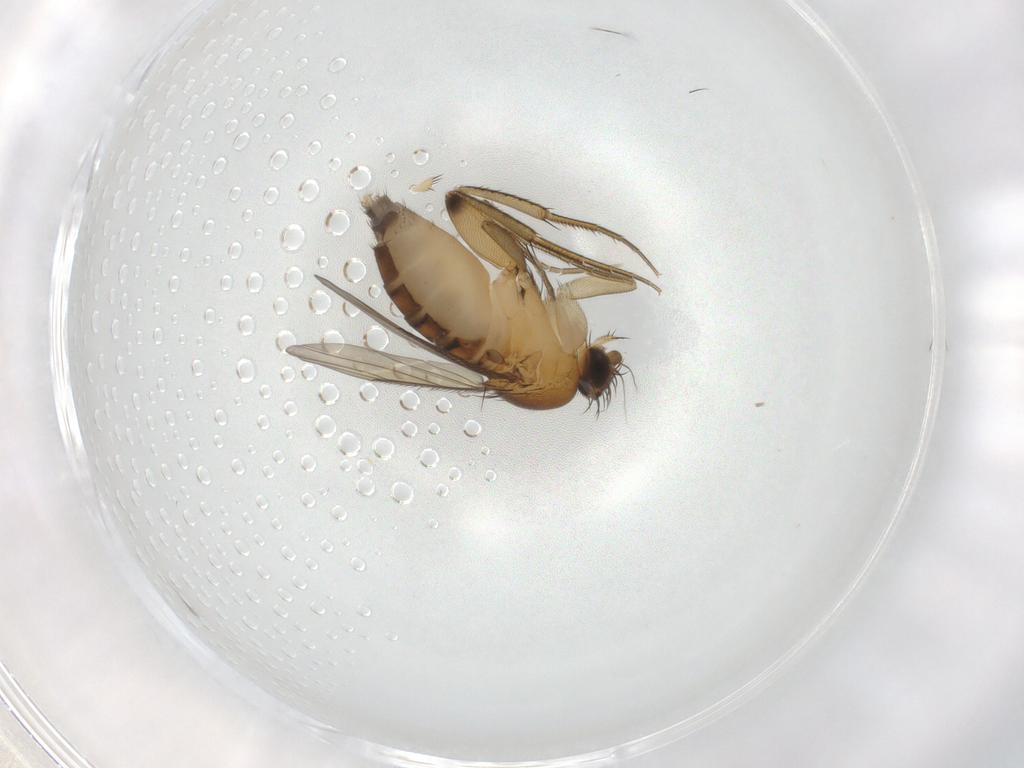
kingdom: Animalia
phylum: Arthropoda
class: Insecta
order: Diptera
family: Phoridae
